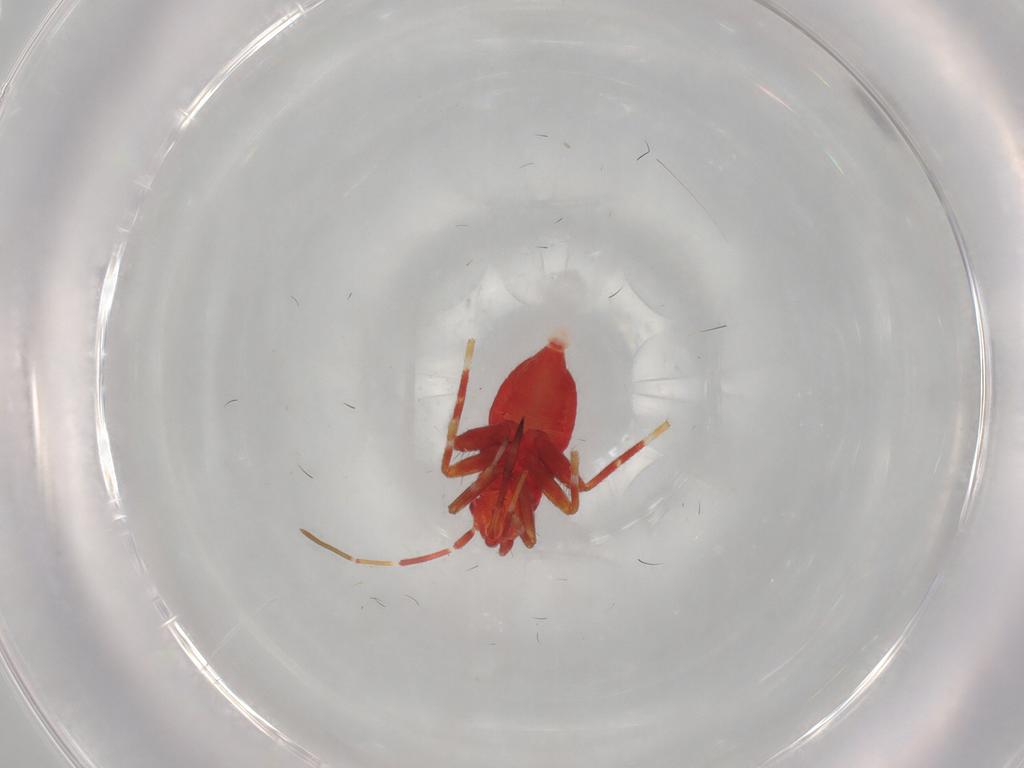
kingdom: Animalia
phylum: Arthropoda
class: Insecta
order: Hemiptera
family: Miridae
